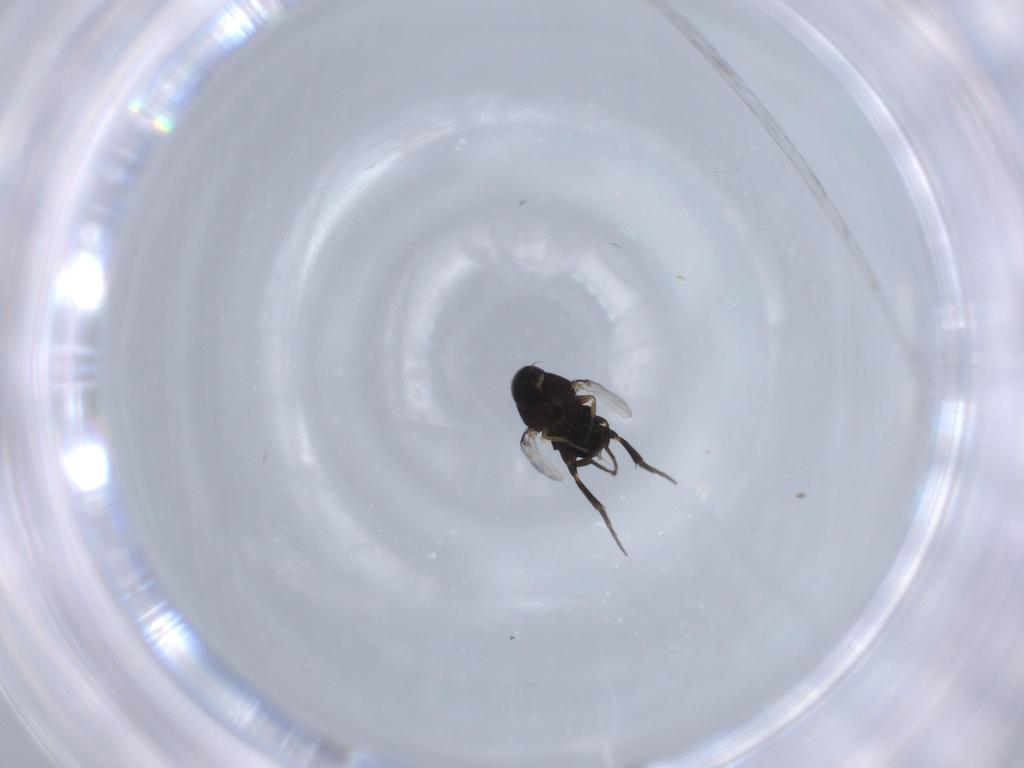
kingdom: Animalia
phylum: Arthropoda
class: Insecta
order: Diptera
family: Phoridae
